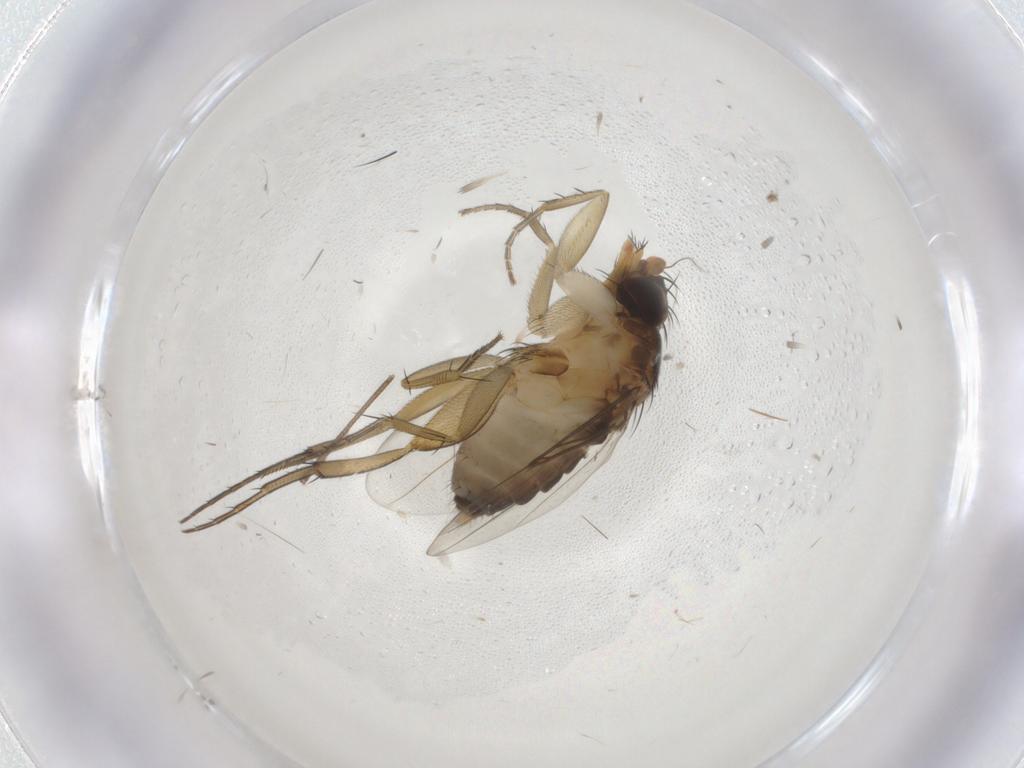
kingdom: Animalia
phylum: Arthropoda
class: Insecta
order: Diptera
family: Phoridae
